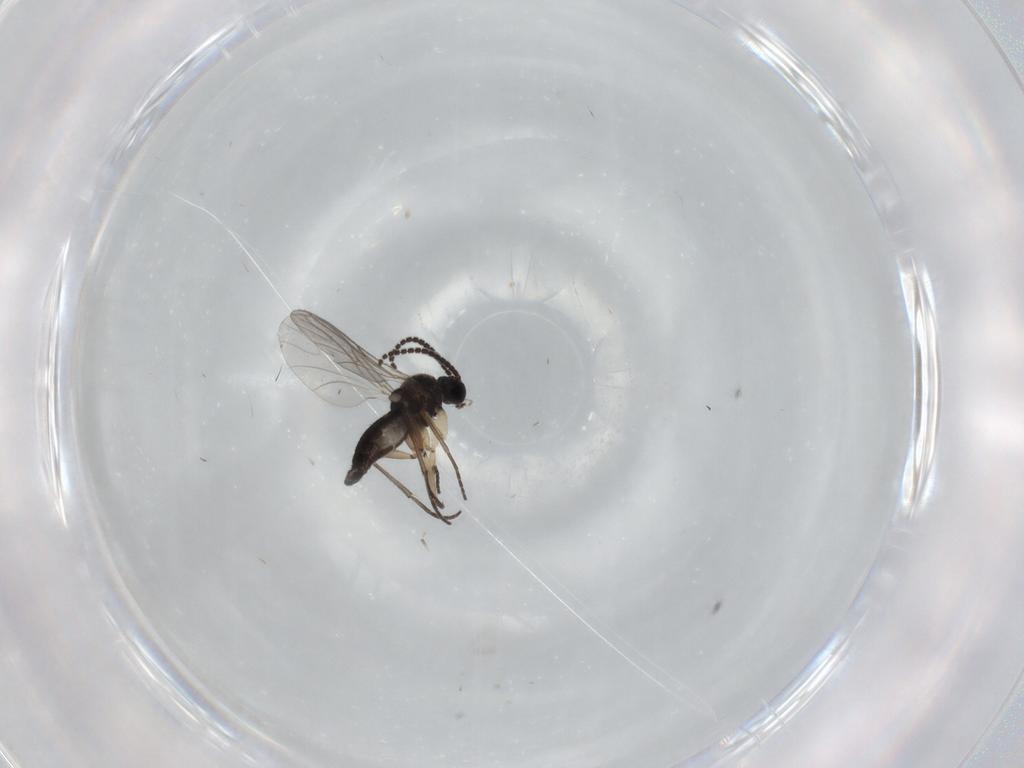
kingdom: Animalia
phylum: Arthropoda
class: Insecta
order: Diptera
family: Sciaridae
